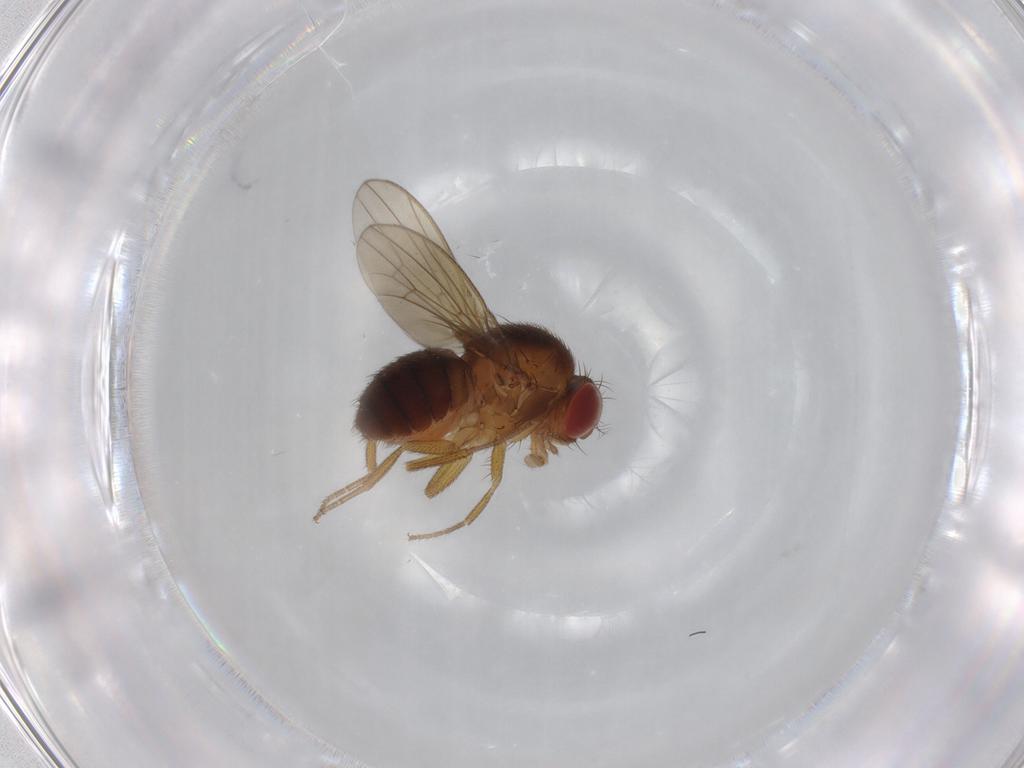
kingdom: Animalia
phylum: Arthropoda
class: Insecta
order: Diptera
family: Drosophilidae
